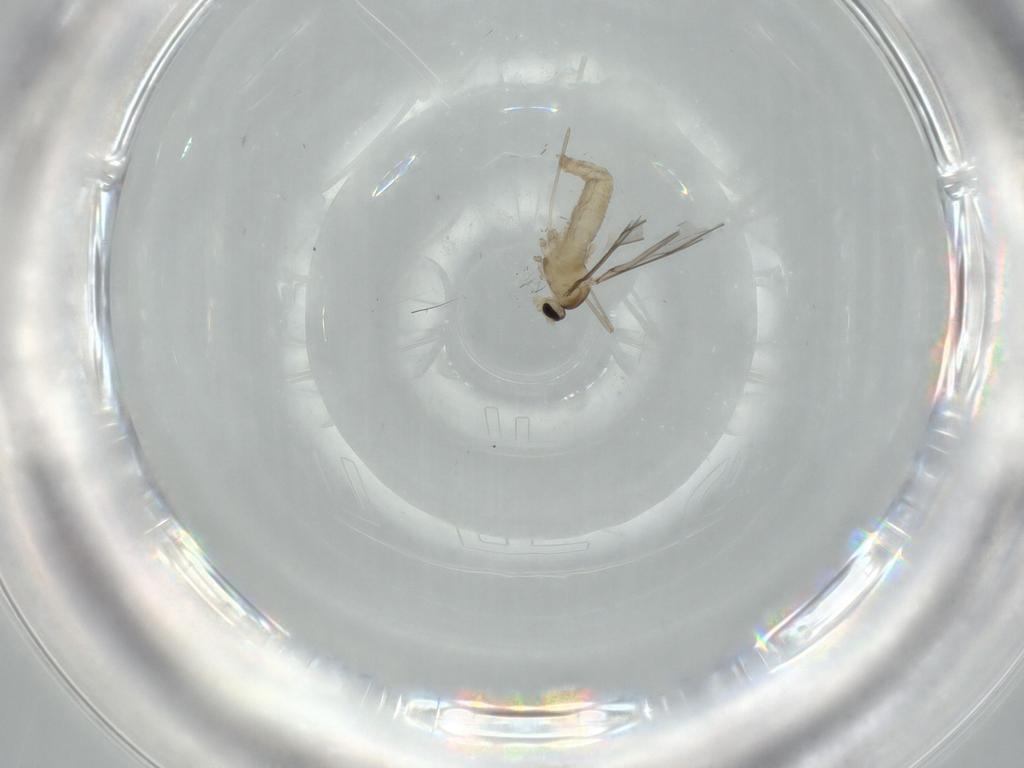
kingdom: Animalia
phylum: Arthropoda
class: Insecta
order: Diptera
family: Cecidomyiidae
